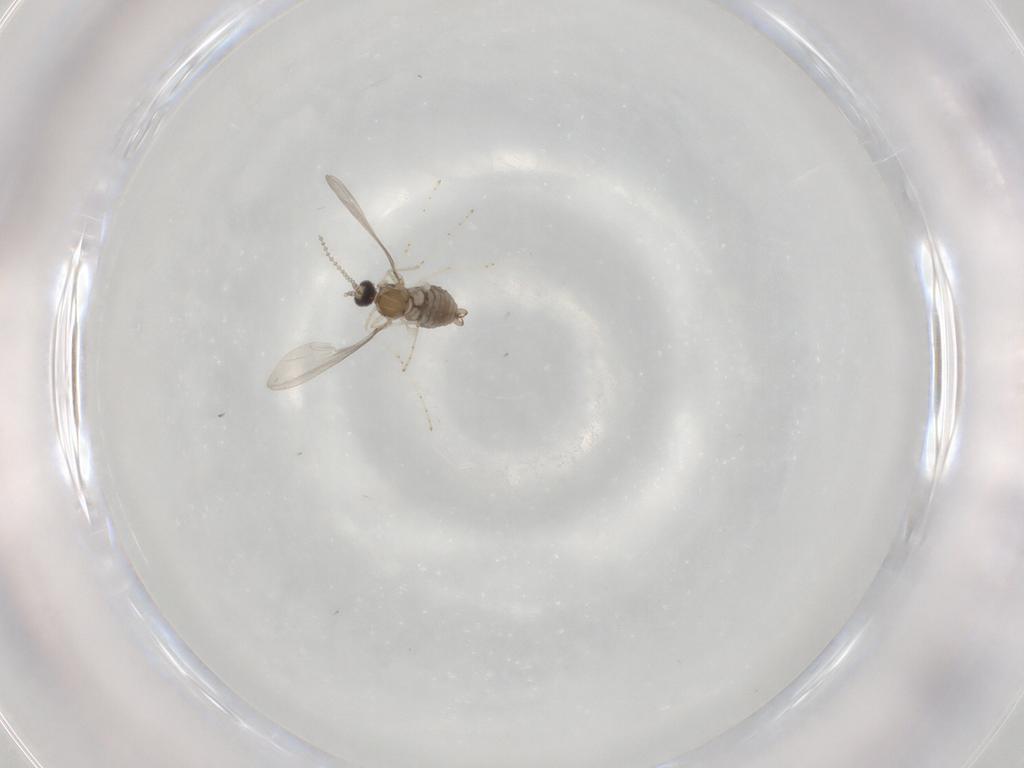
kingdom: Animalia
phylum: Arthropoda
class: Insecta
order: Diptera
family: Cecidomyiidae
